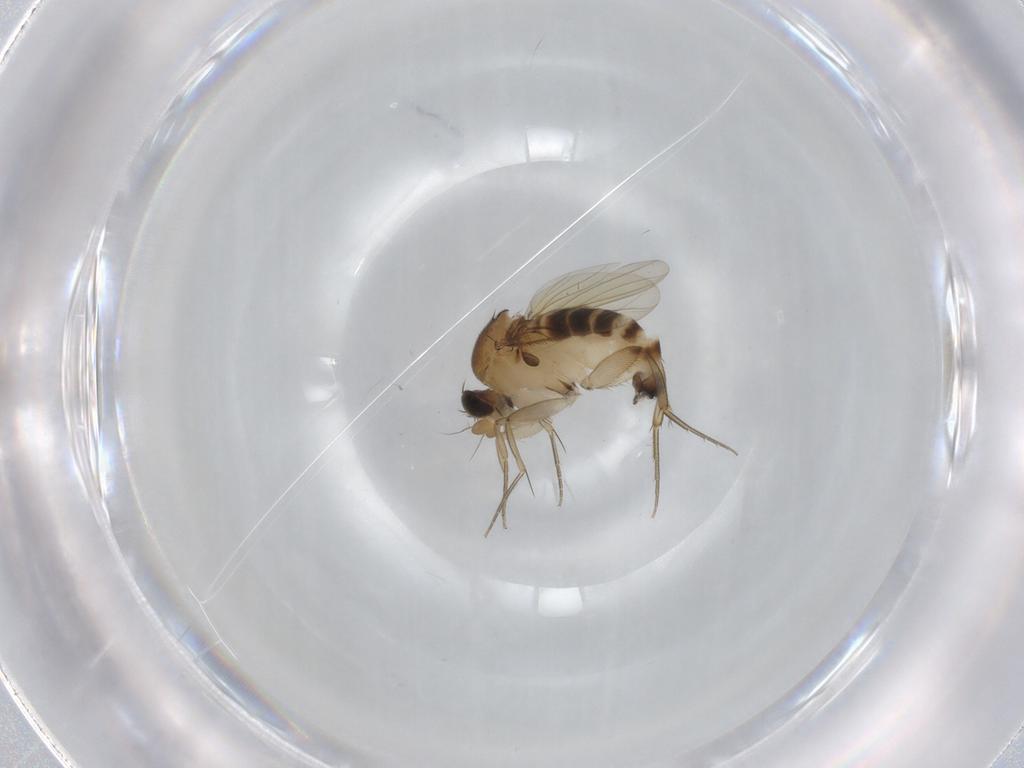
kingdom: Animalia
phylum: Arthropoda
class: Insecta
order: Diptera
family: Phoridae
